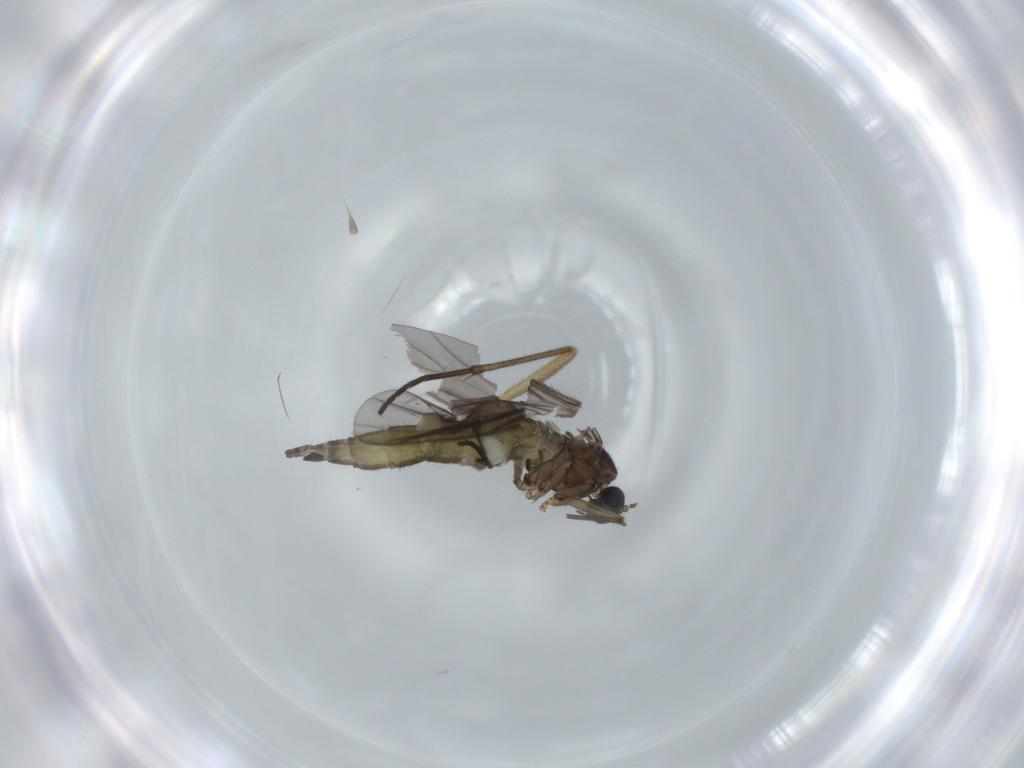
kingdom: Animalia
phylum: Arthropoda
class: Insecta
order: Diptera
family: Sciaridae
